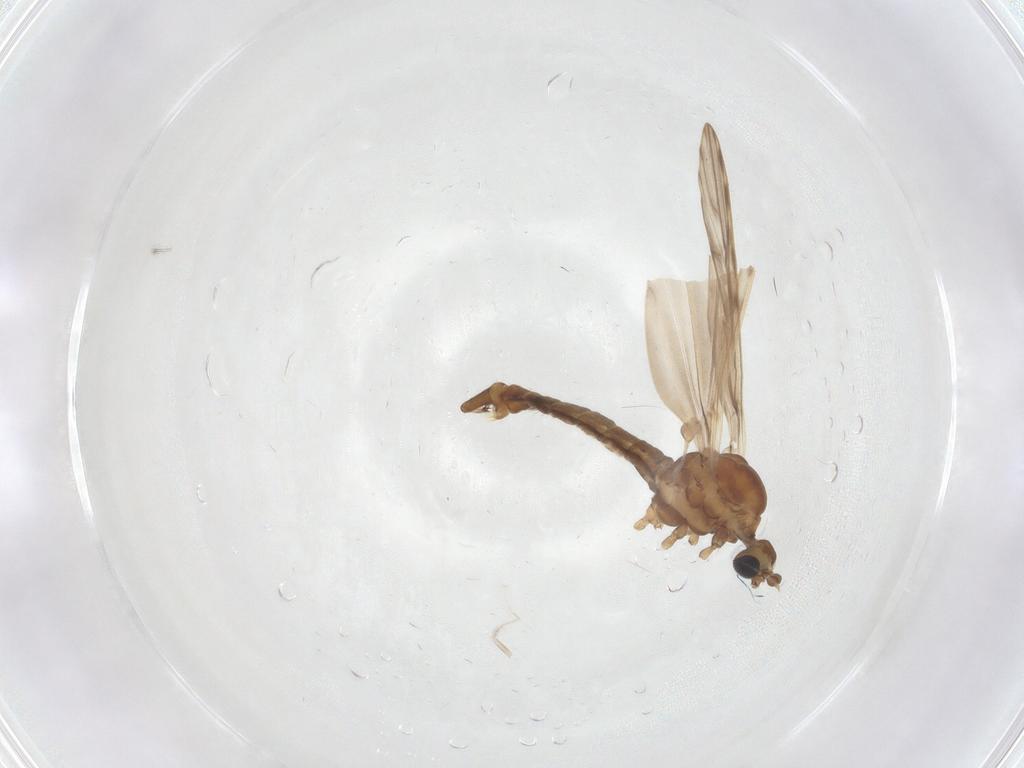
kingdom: Animalia
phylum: Arthropoda
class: Insecta
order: Diptera
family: Limoniidae
